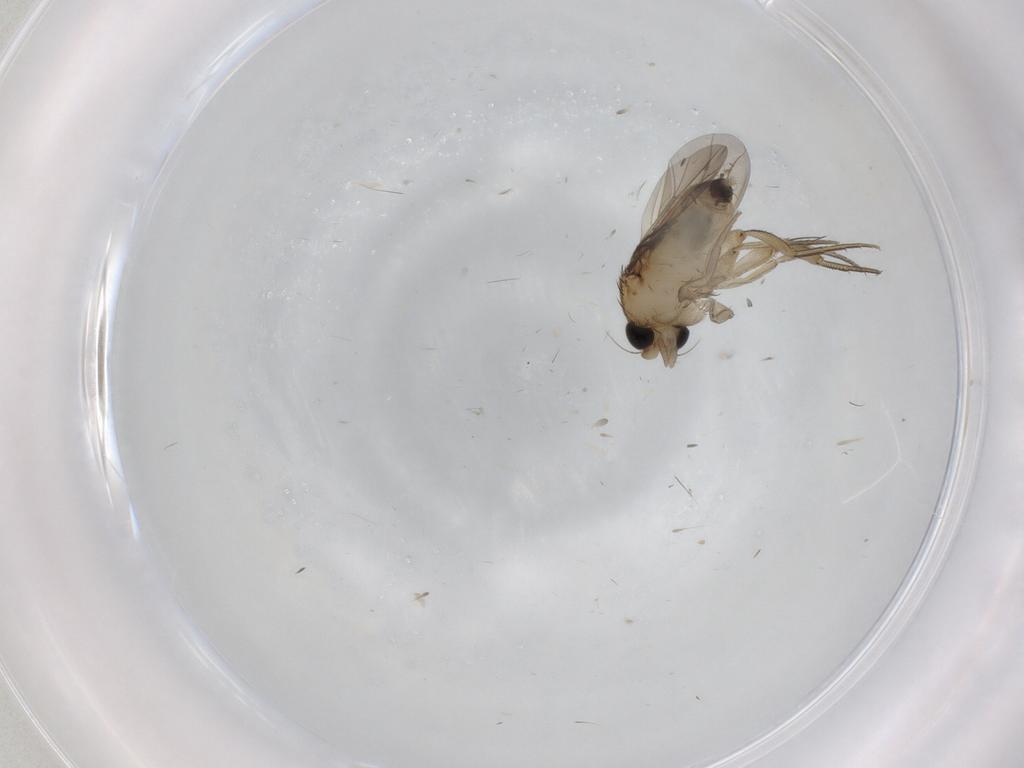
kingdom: Animalia
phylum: Arthropoda
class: Insecta
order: Diptera
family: Phoridae
